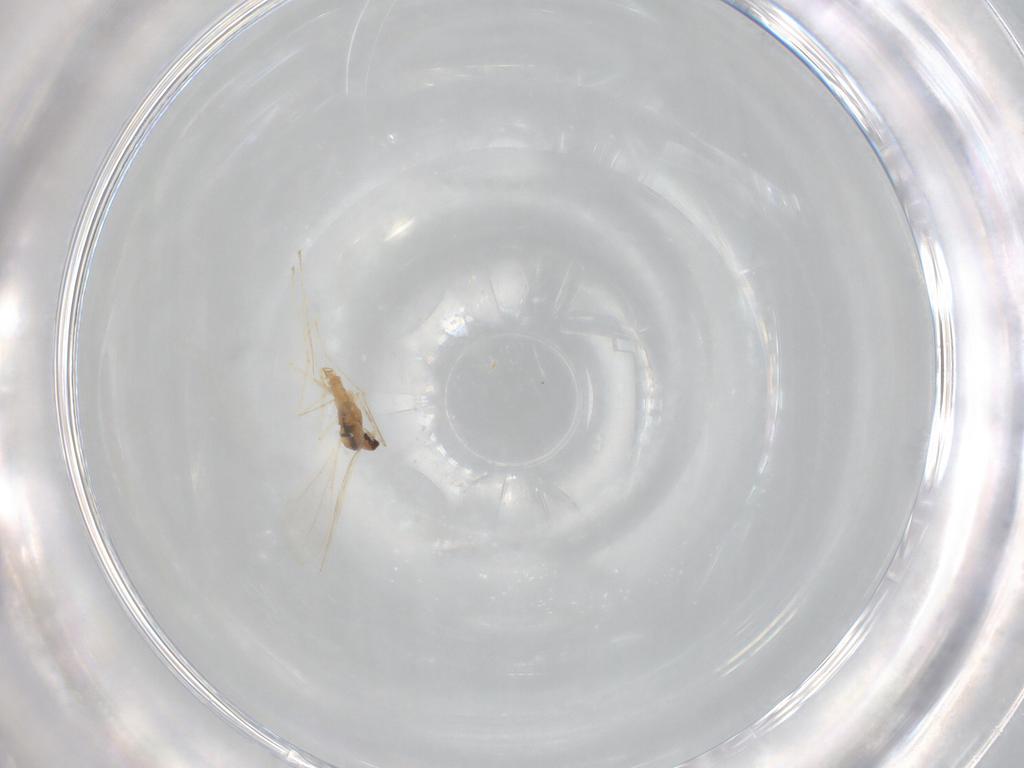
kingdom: Animalia
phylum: Arthropoda
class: Insecta
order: Diptera
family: Cecidomyiidae
